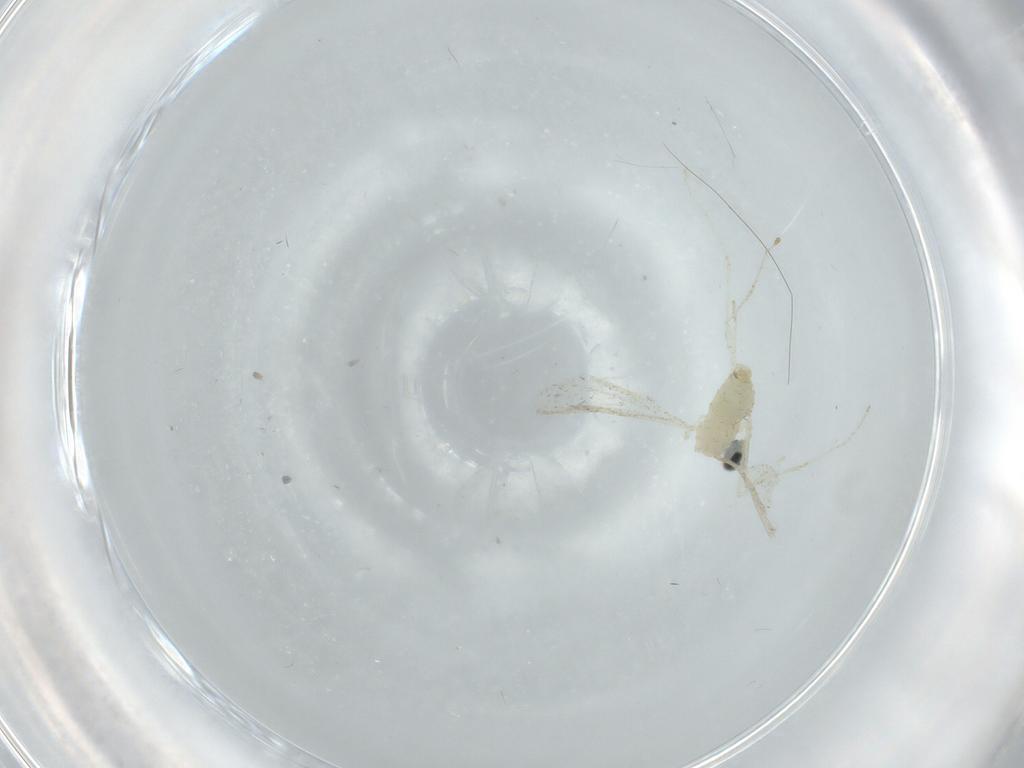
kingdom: Animalia
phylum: Arthropoda
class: Insecta
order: Diptera
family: Cecidomyiidae
